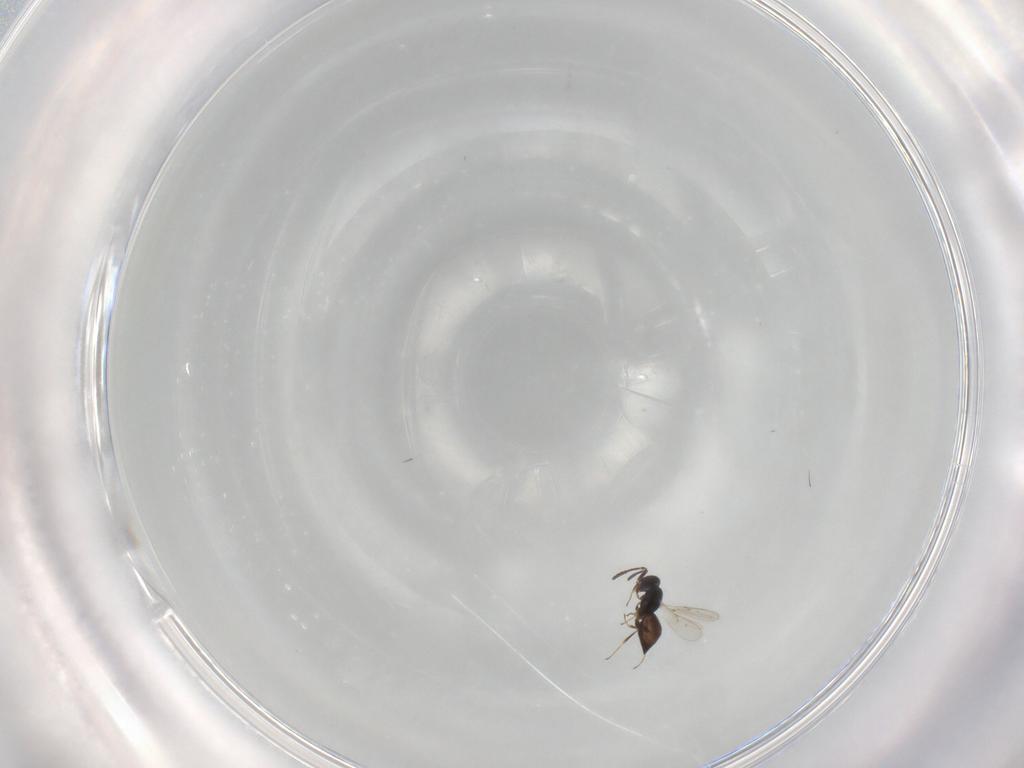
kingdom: Animalia
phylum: Arthropoda
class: Insecta
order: Hymenoptera
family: Scelionidae
